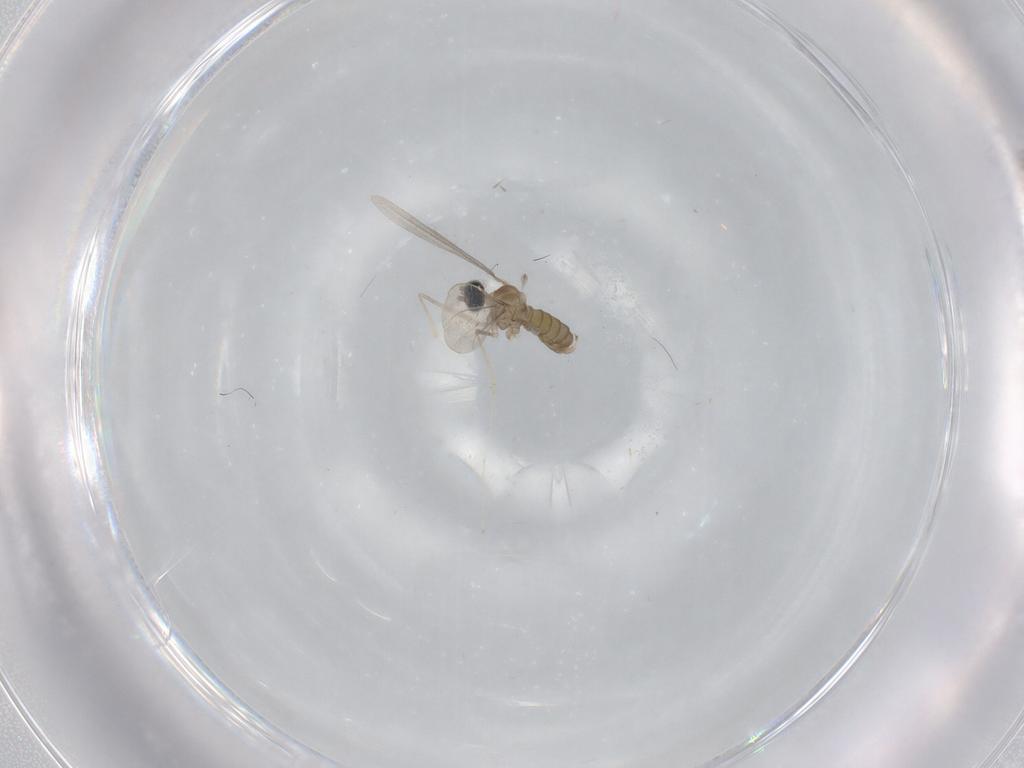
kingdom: Animalia
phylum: Arthropoda
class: Insecta
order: Diptera
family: Cecidomyiidae
